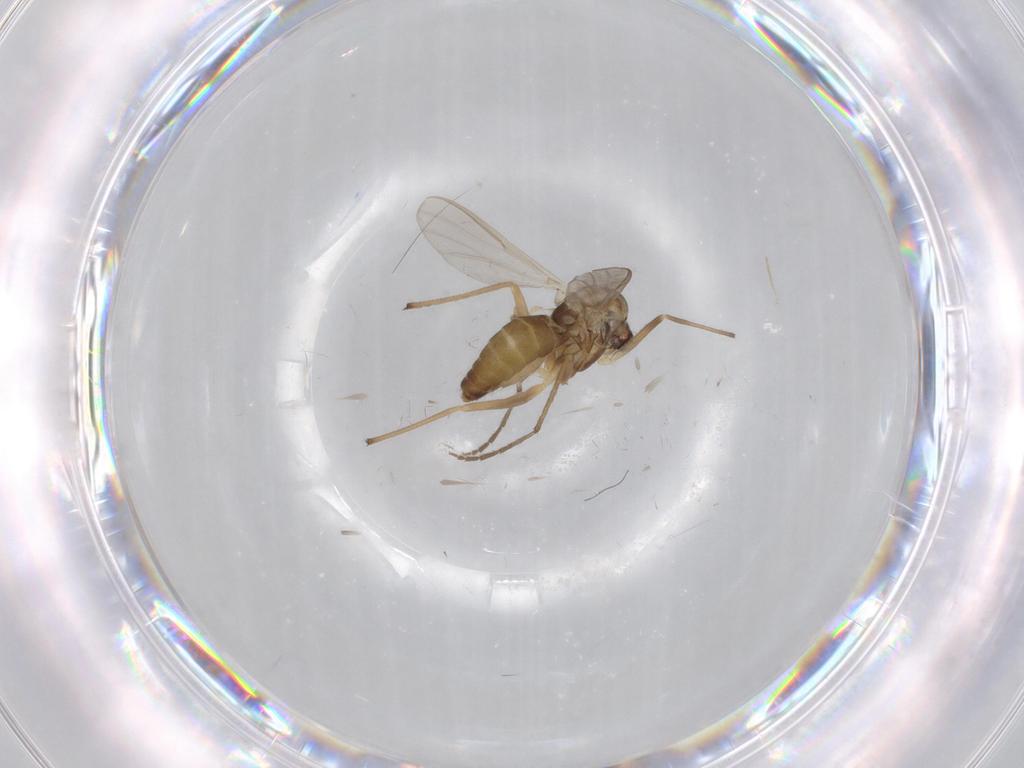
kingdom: Animalia
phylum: Arthropoda
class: Insecta
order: Diptera
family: Chironomidae
